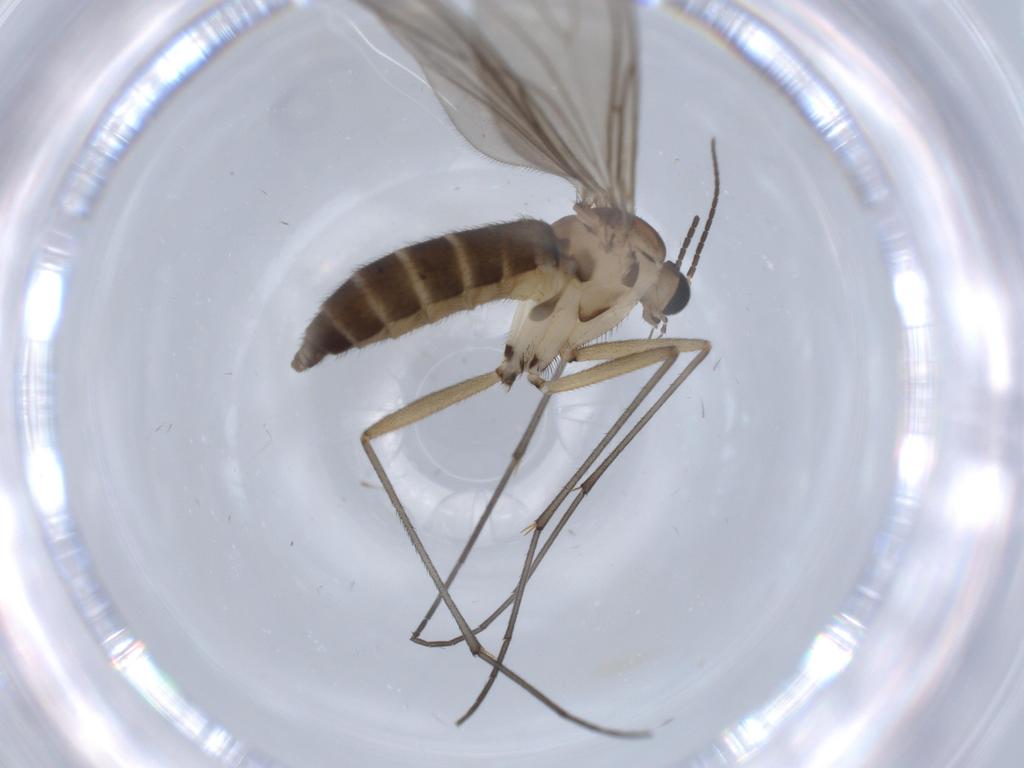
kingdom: Animalia
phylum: Arthropoda
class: Insecta
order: Diptera
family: Sciaridae
